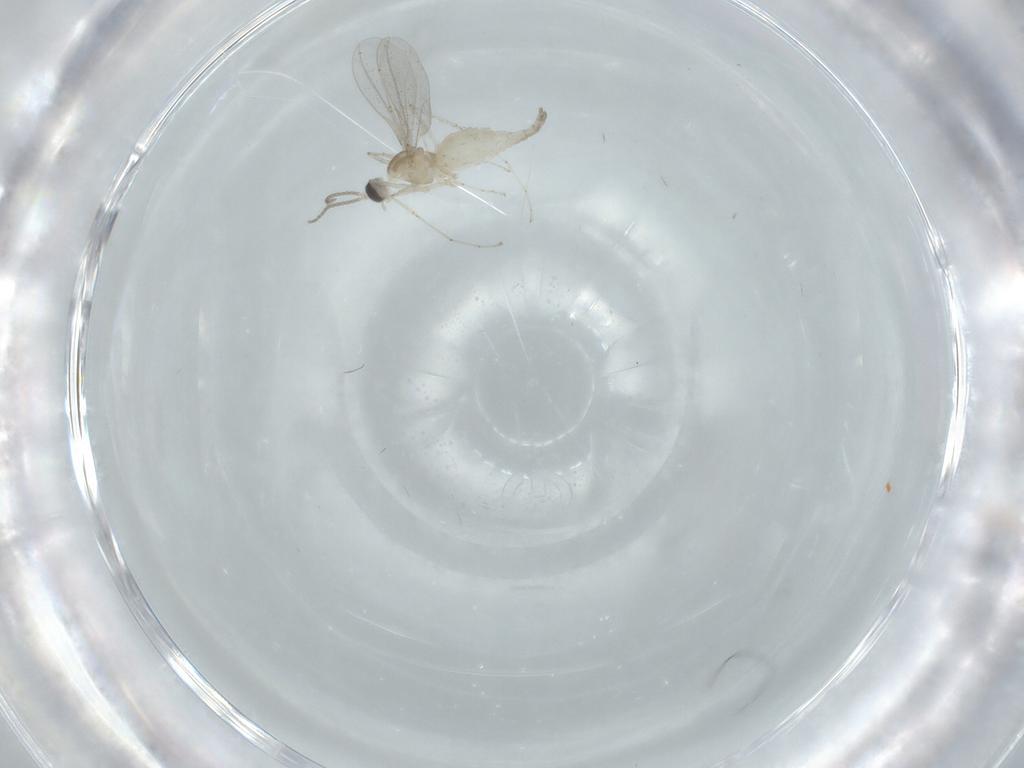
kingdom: Animalia
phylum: Arthropoda
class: Insecta
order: Diptera
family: Cecidomyiidae
